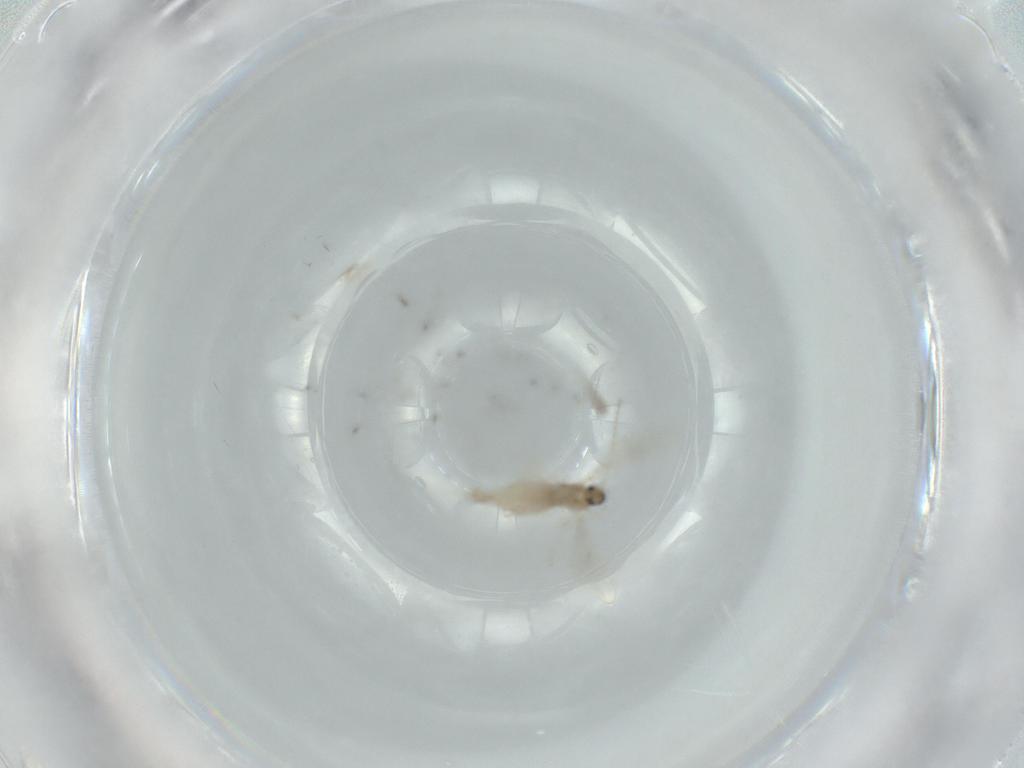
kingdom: Animalia
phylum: Arthropoda
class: Insecta
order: Diptera
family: Cecidomyiidae
